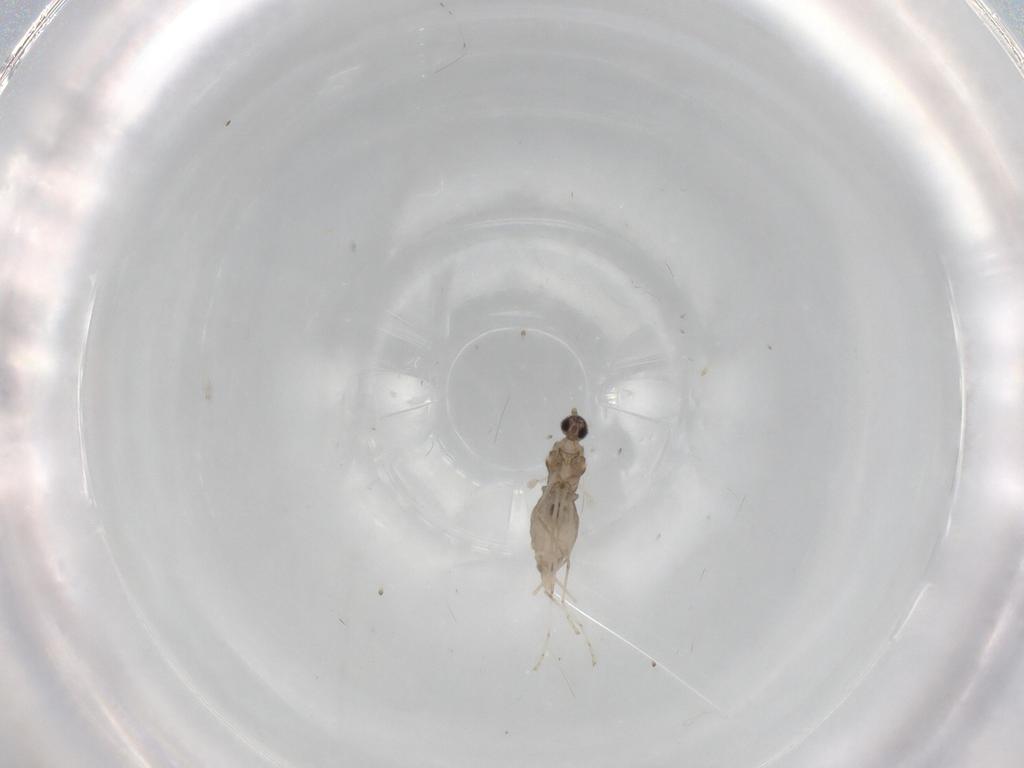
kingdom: Animalia
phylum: Arthropoda
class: Insecta
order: Diptera
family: Cecidomyiidae
